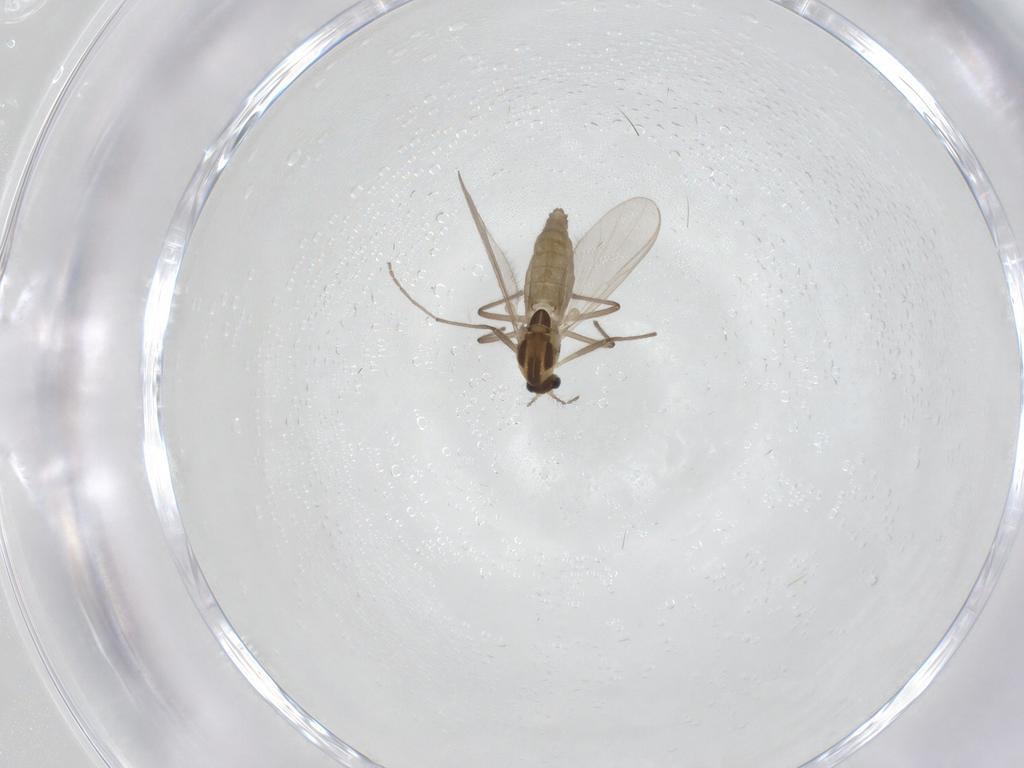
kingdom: Animalia
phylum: Arthropoda
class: Insecta
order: Diptera
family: Chironomidae
